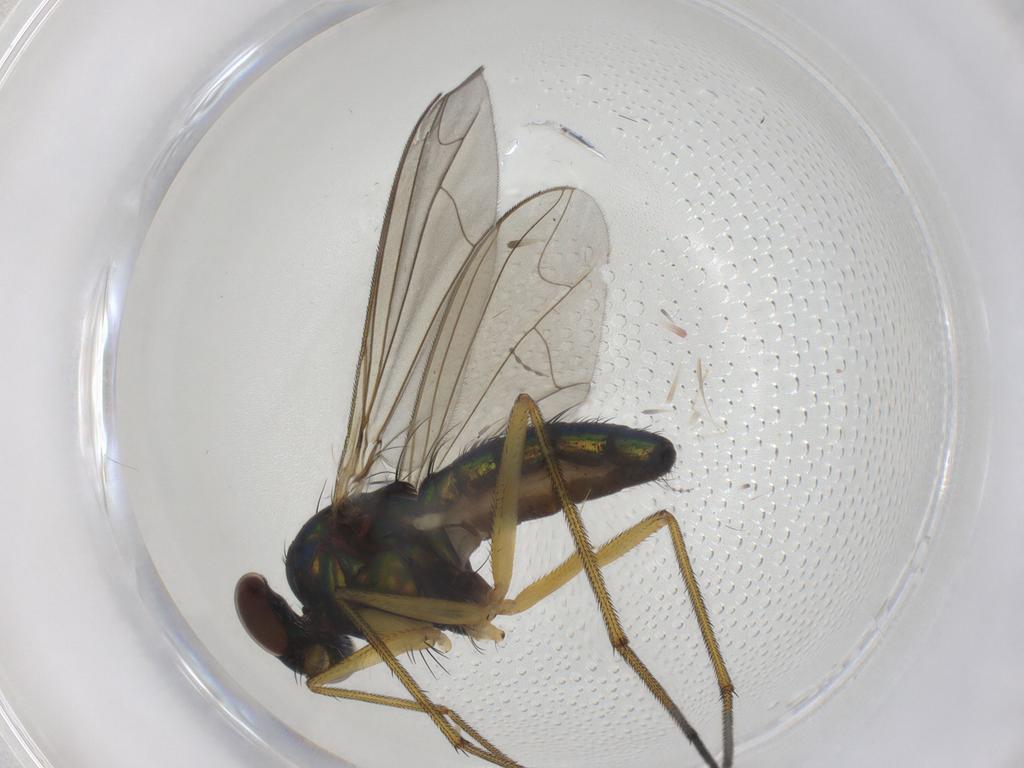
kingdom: Animalia
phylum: Arthropoda
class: Insecta
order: Diptera
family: Dolichopodidae
